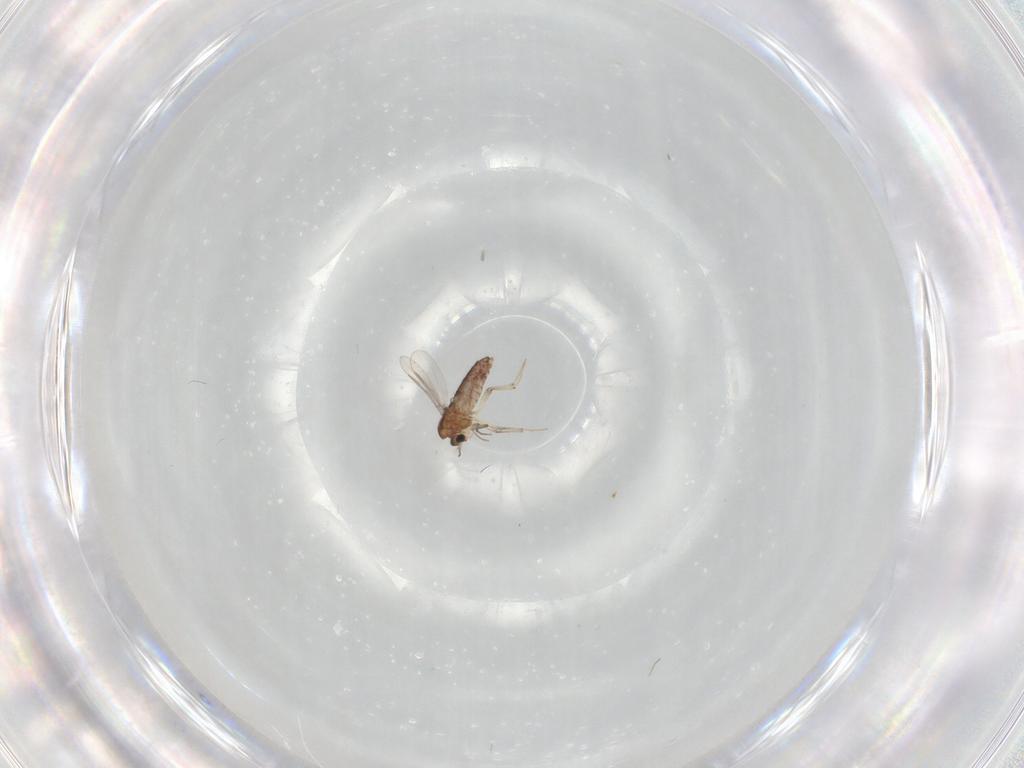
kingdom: Animalia
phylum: Arthropoda
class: Insecta
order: Diptera
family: Chironomidae
